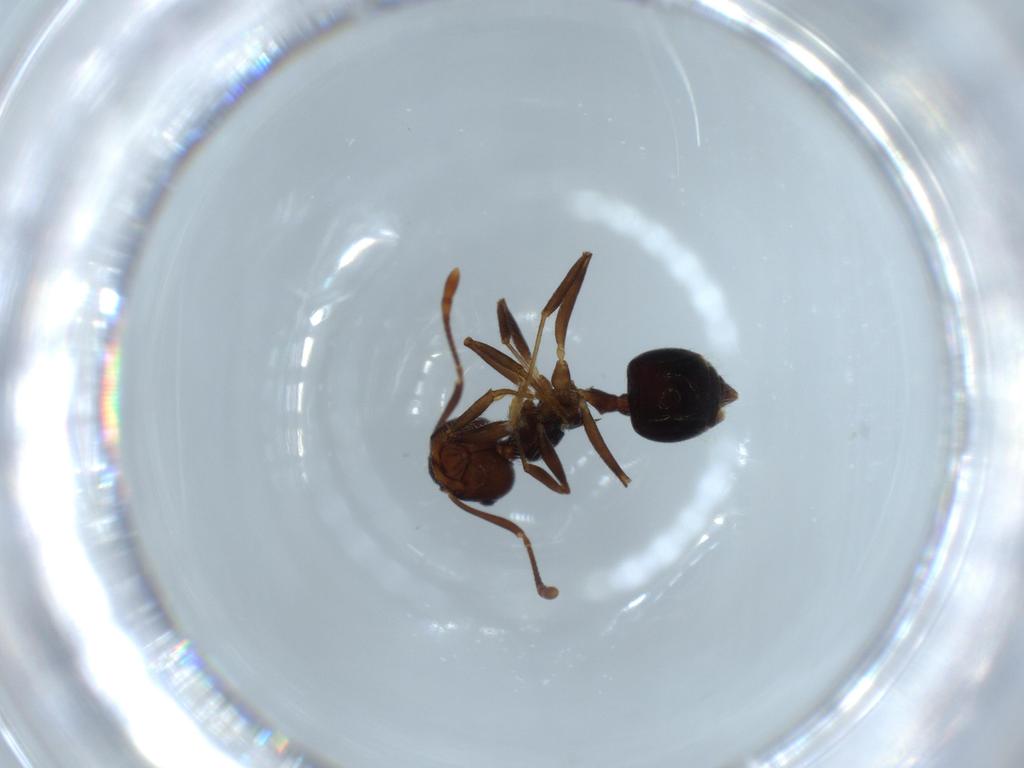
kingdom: Animalia
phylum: Arthropoda
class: Insecta
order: Hymenoptera
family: Formicidae
